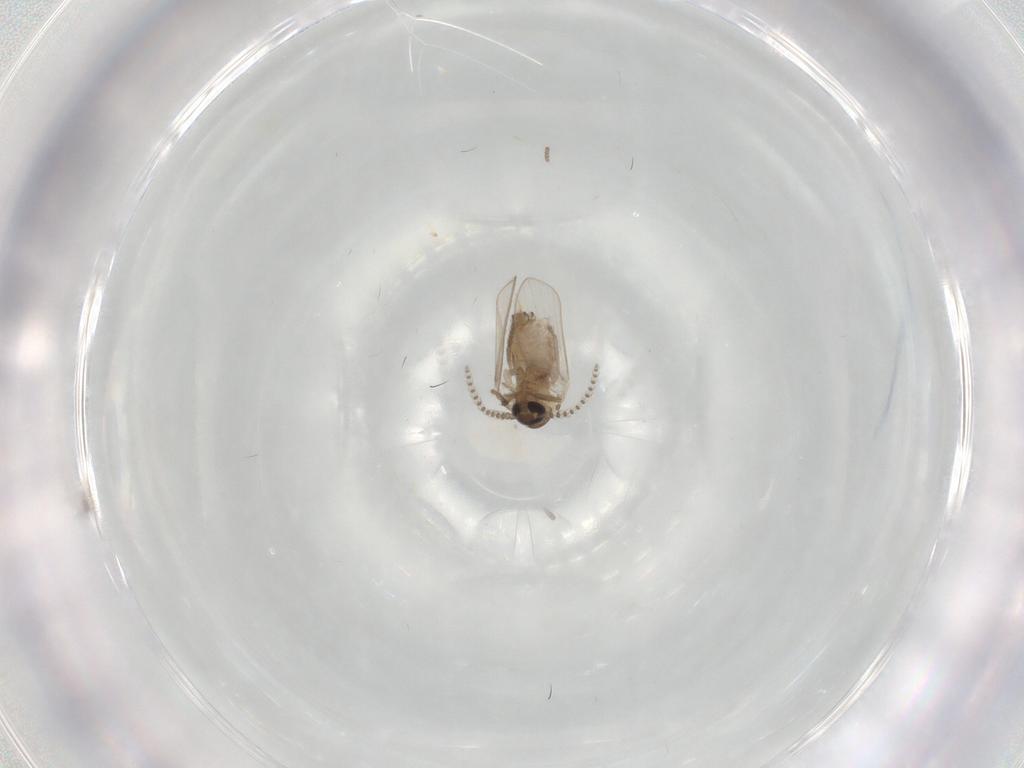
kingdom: Animalia
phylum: Arthropoda
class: Insecta
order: Diptera
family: Psychodidae
